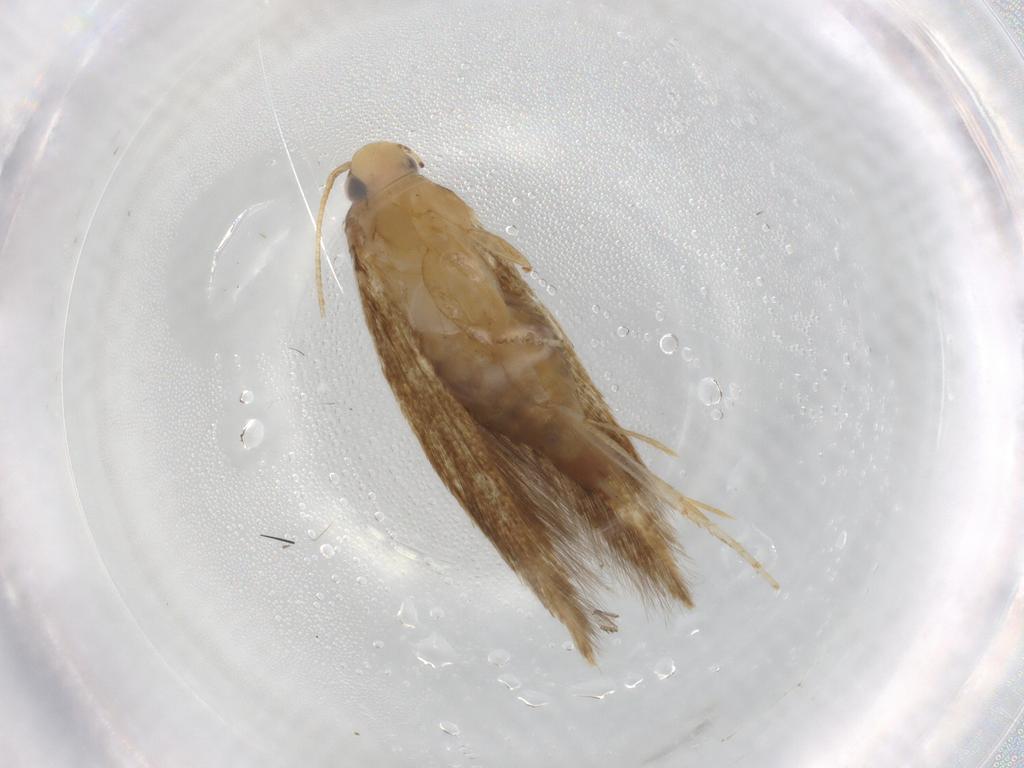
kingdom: Animalia
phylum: Arthropoda
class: Insecta
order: Lepidoptera
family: Tineidae
